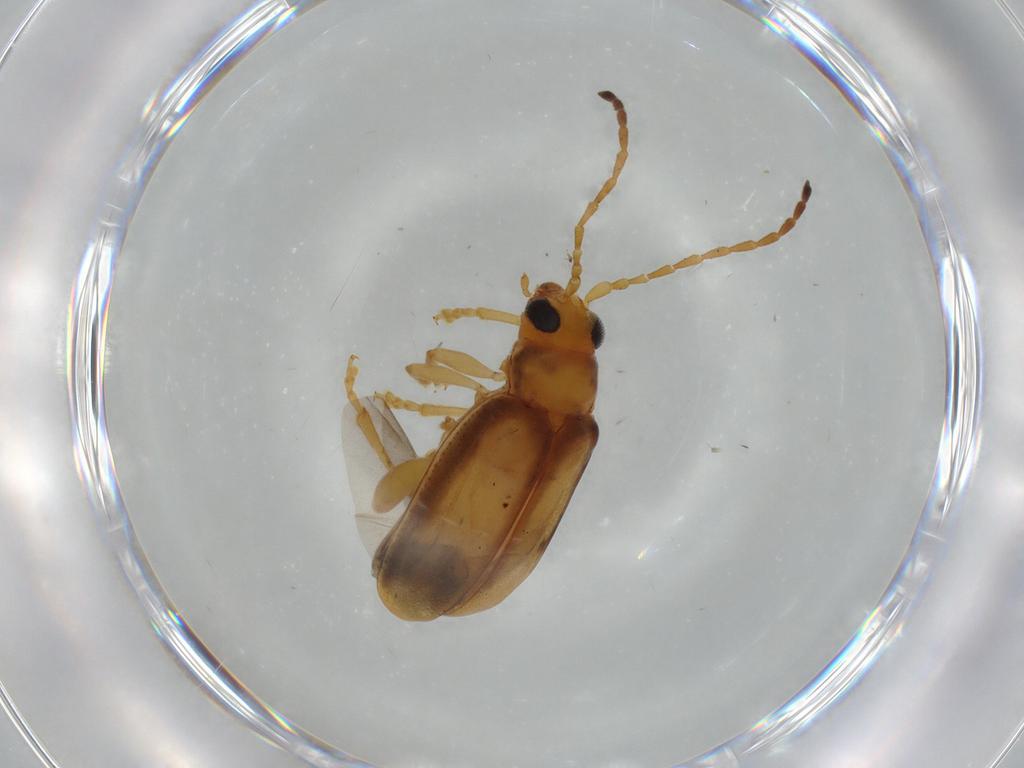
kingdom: Animalia
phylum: Arthropoda
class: Insecta
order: Coleoptera
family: Chrysomelidae
